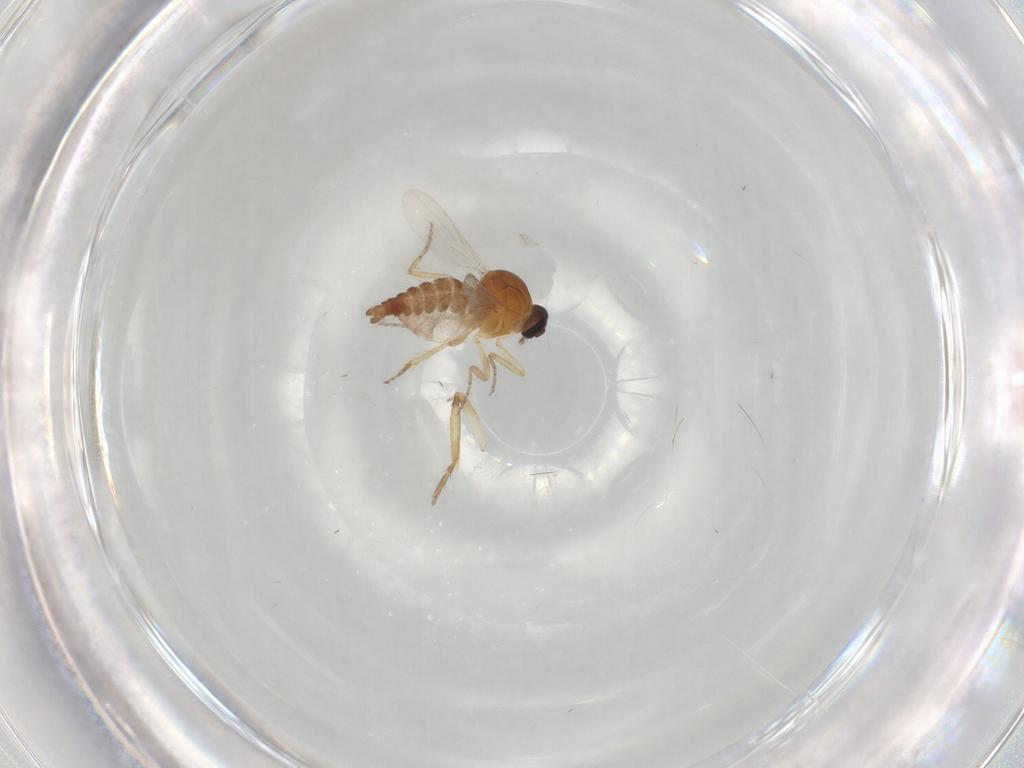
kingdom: Animalia
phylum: Arthropoda
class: Insecta
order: Diptera
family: Ceratopogonidae
